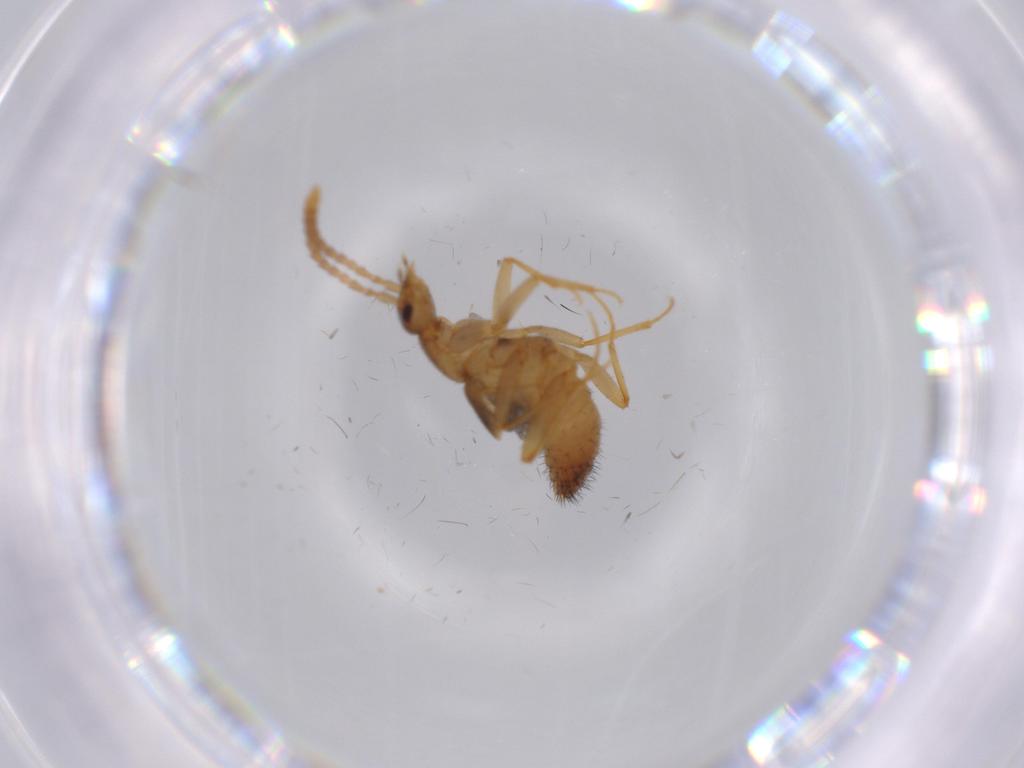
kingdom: Animalia
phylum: Arthropoda
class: Insecta
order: Coleoptera
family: Staphylinidae
